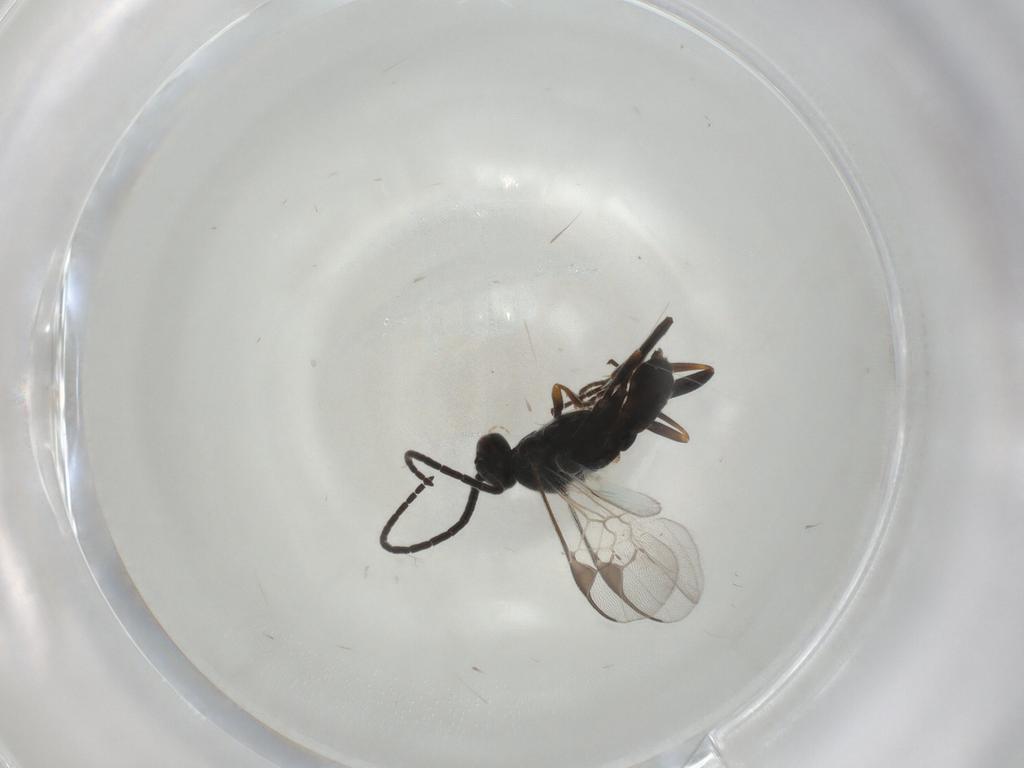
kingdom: Animalia
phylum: Arthropoda
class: Insecta
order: Hymenoptera
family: Braconidae
